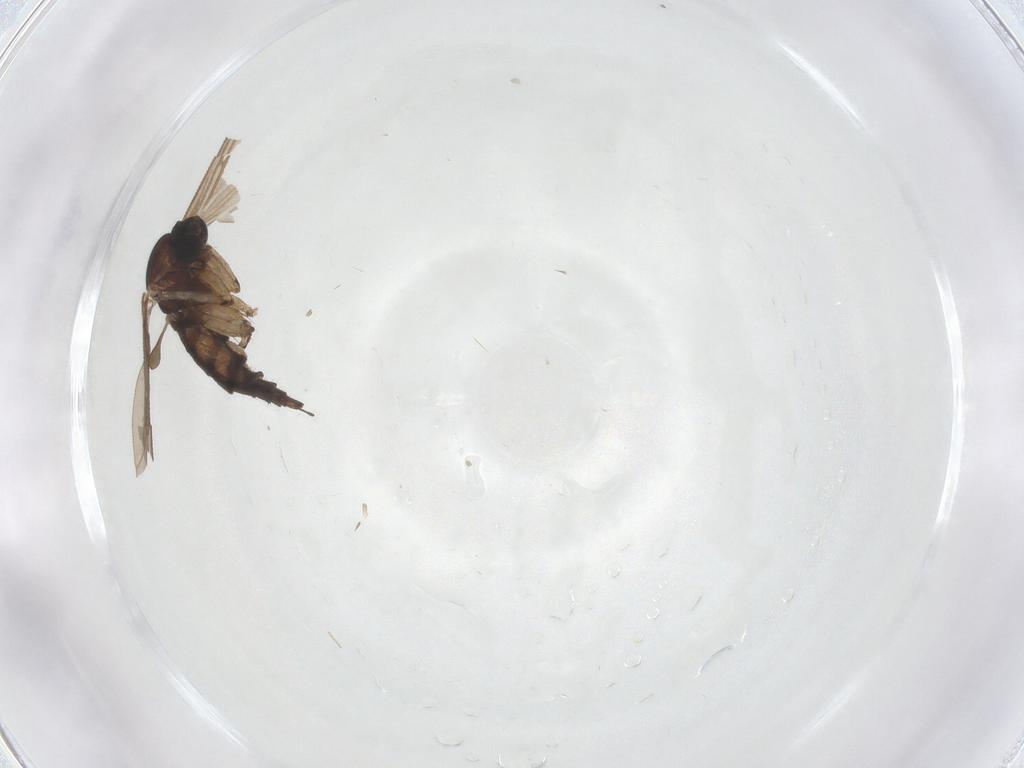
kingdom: Animalia
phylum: Arthropoda
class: Insecta
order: Diptera
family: Sciaridae
